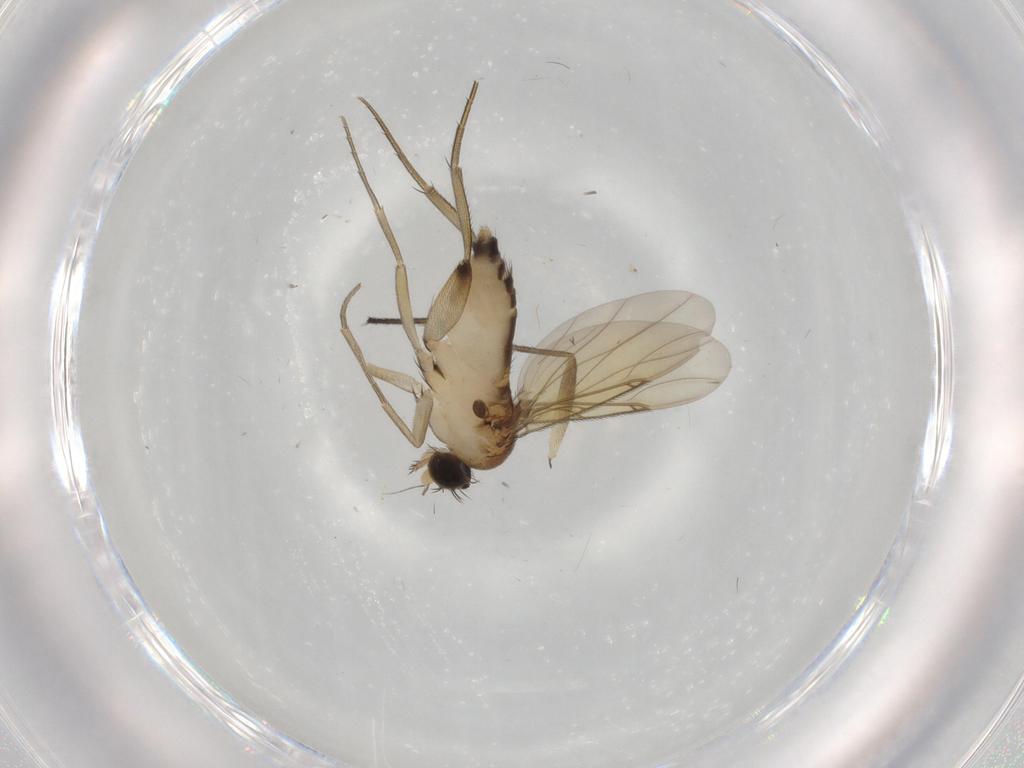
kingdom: Animalia
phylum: Arthropoda
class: Insecta
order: Diptera
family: Phoridae
